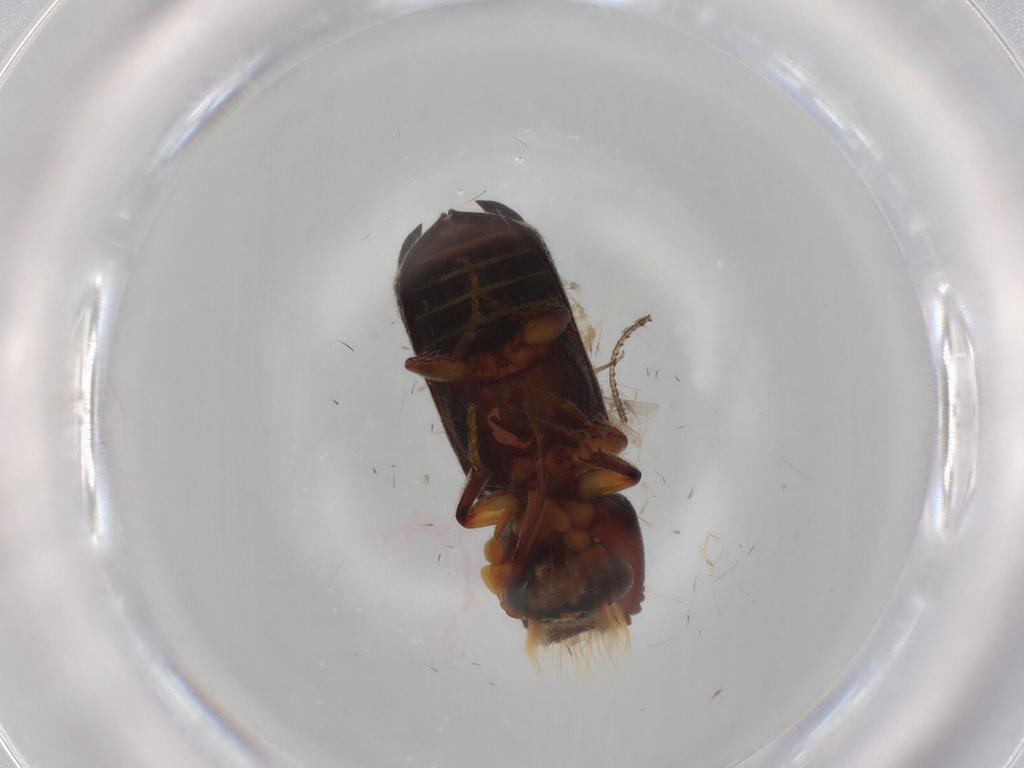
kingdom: Animalia
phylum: Arthropoda
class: Insecta
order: Coleoptera
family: Bostrichidae
